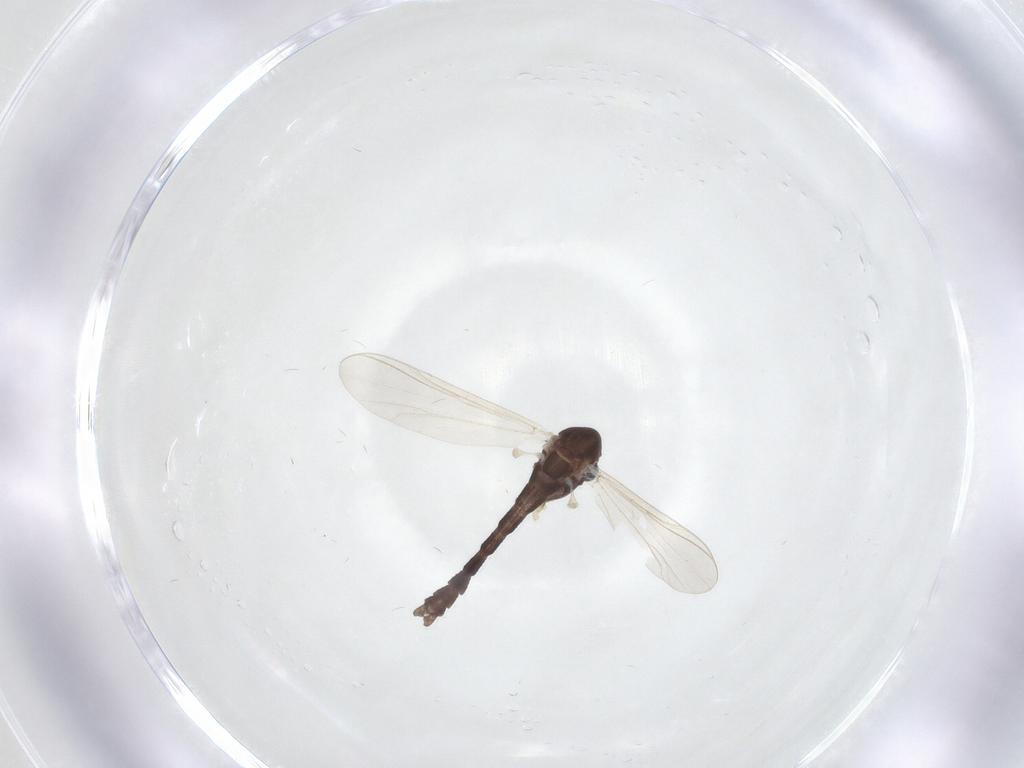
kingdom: Animalia
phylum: Arthropoda
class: Insecta
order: Diptera
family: Chironomidae
